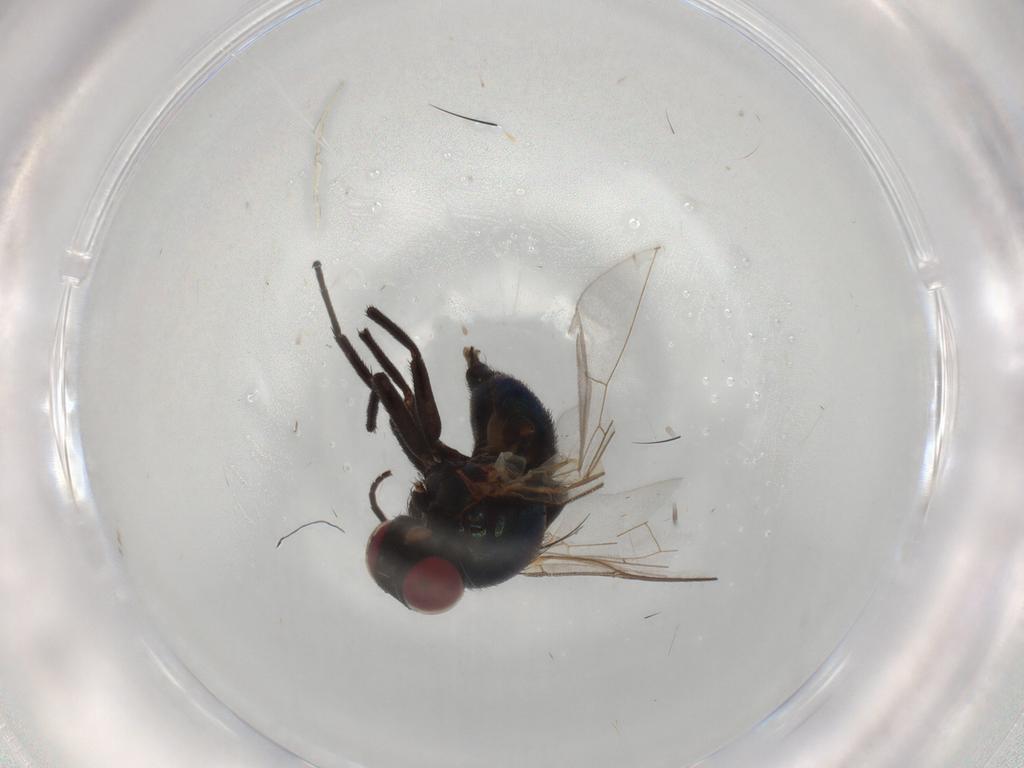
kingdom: Animalia
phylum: Arthropoda
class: Insecta
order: Diptera
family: Agromyzidae
